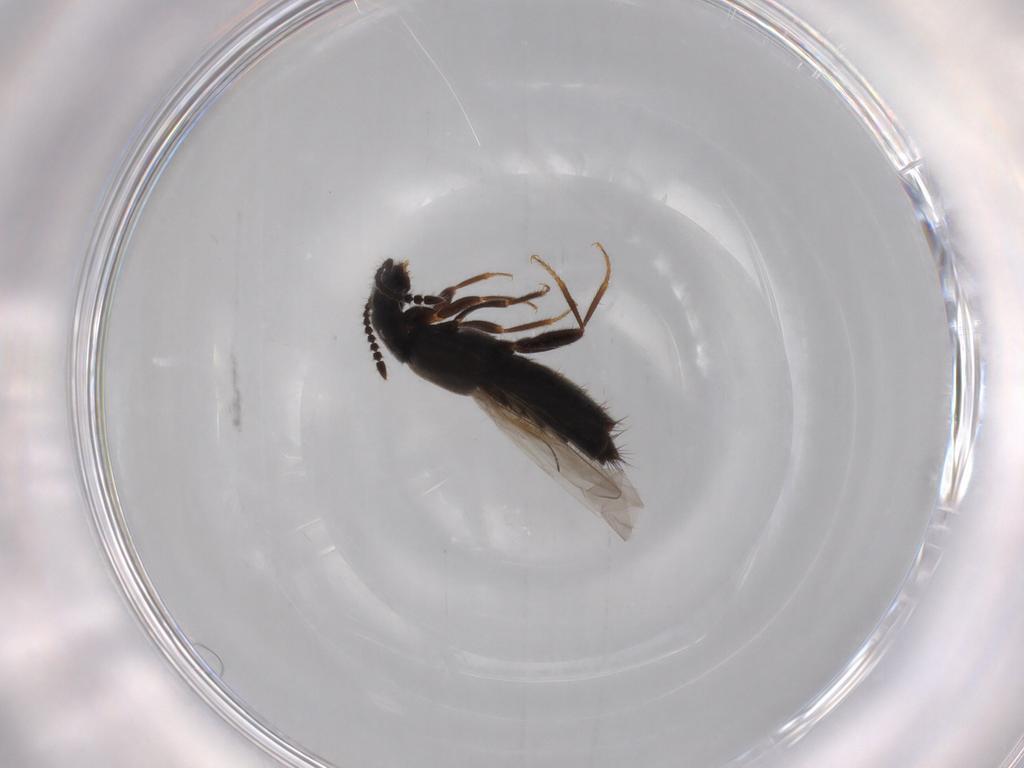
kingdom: Animalia
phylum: Arthropoda
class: Insecta
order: Coleoptera
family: Staphylinidae
